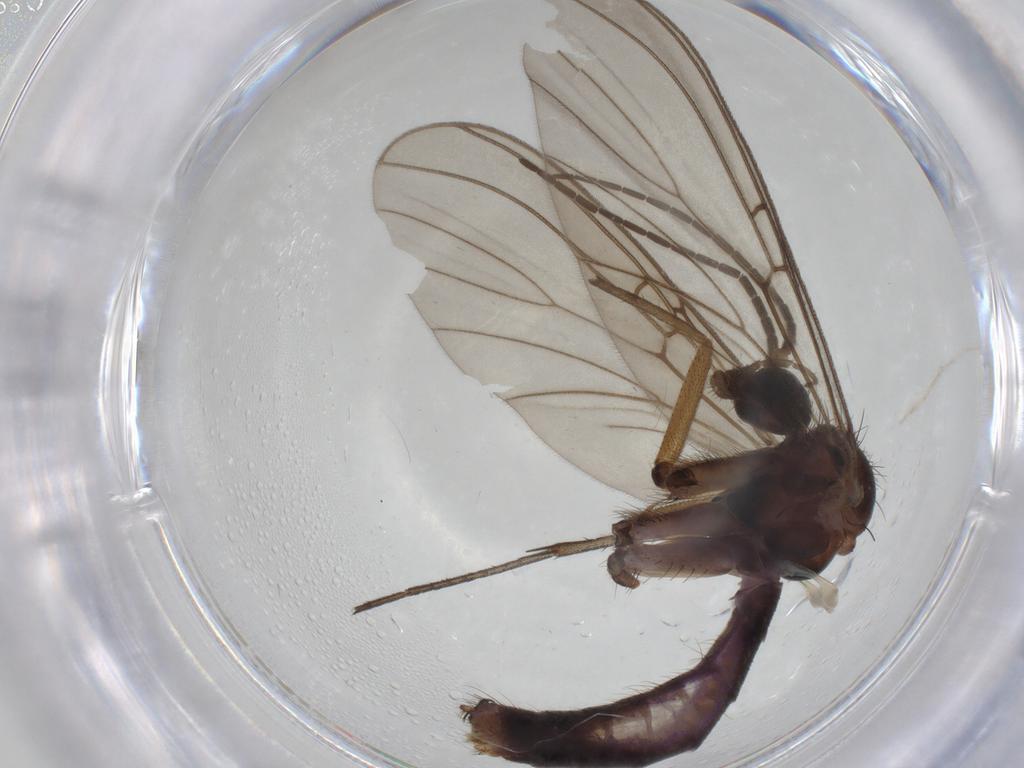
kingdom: Animalia
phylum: Arthropoda
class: Insecta
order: Diptera
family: Mycetophilidae
